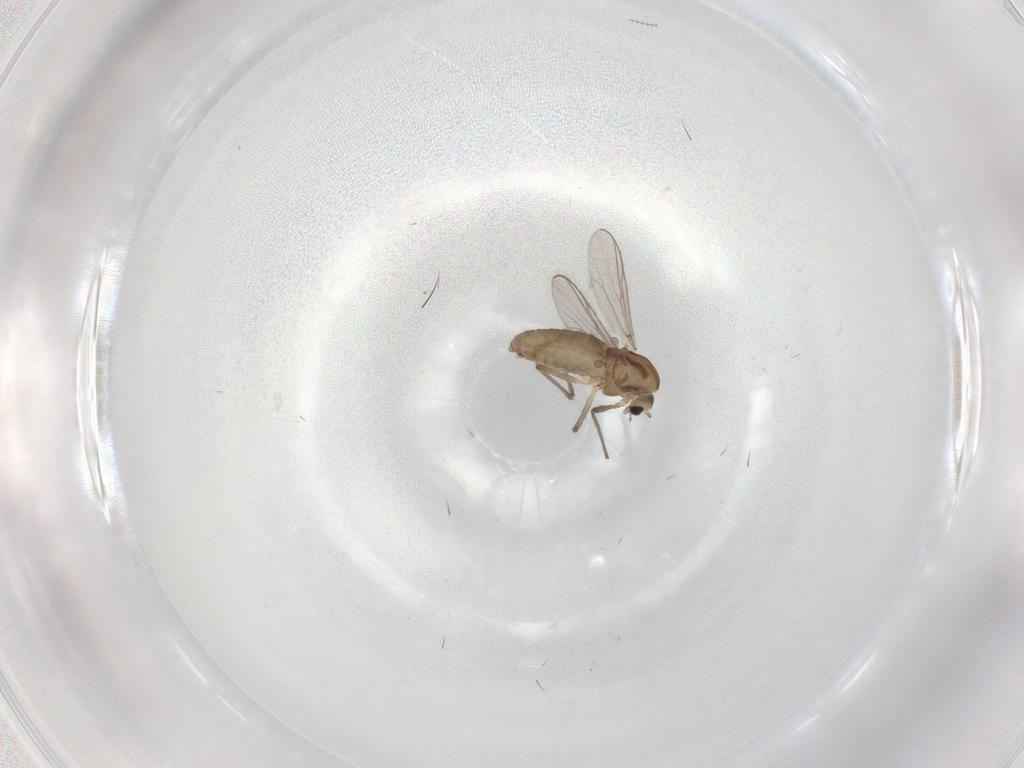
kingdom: Animalia
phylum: Arthropoda
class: Insecta
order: Diptera
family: Chironomidae
